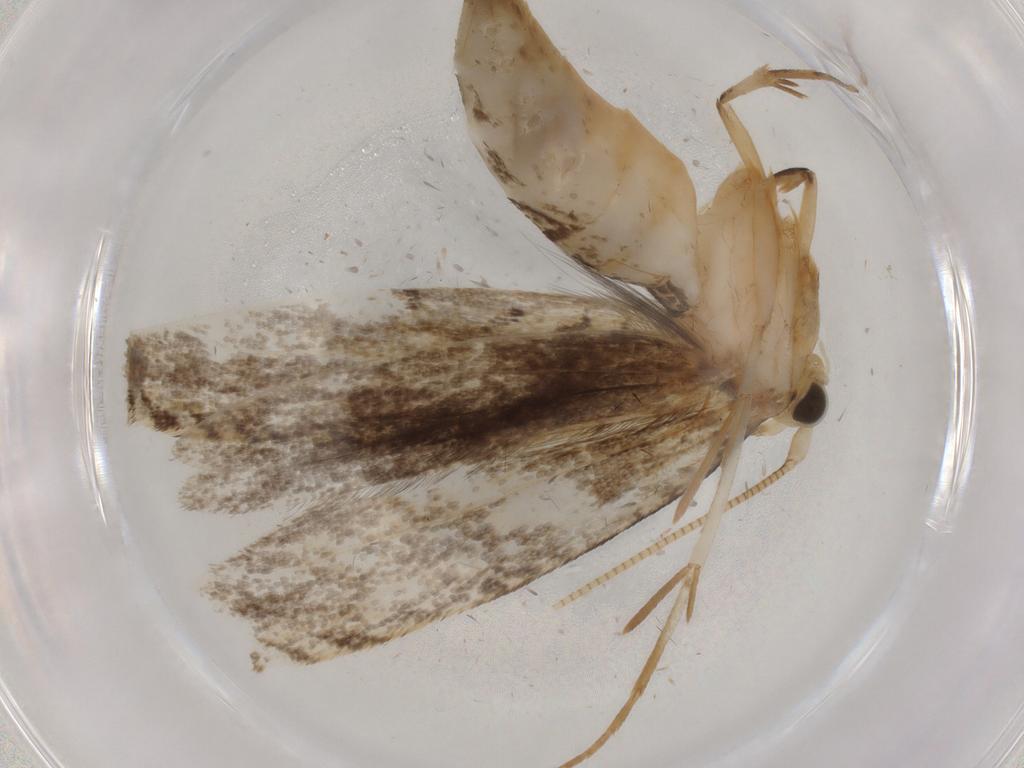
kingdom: Animalia
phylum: Arthropoda
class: Insecta
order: Lepidoptera
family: Nepticulidae
